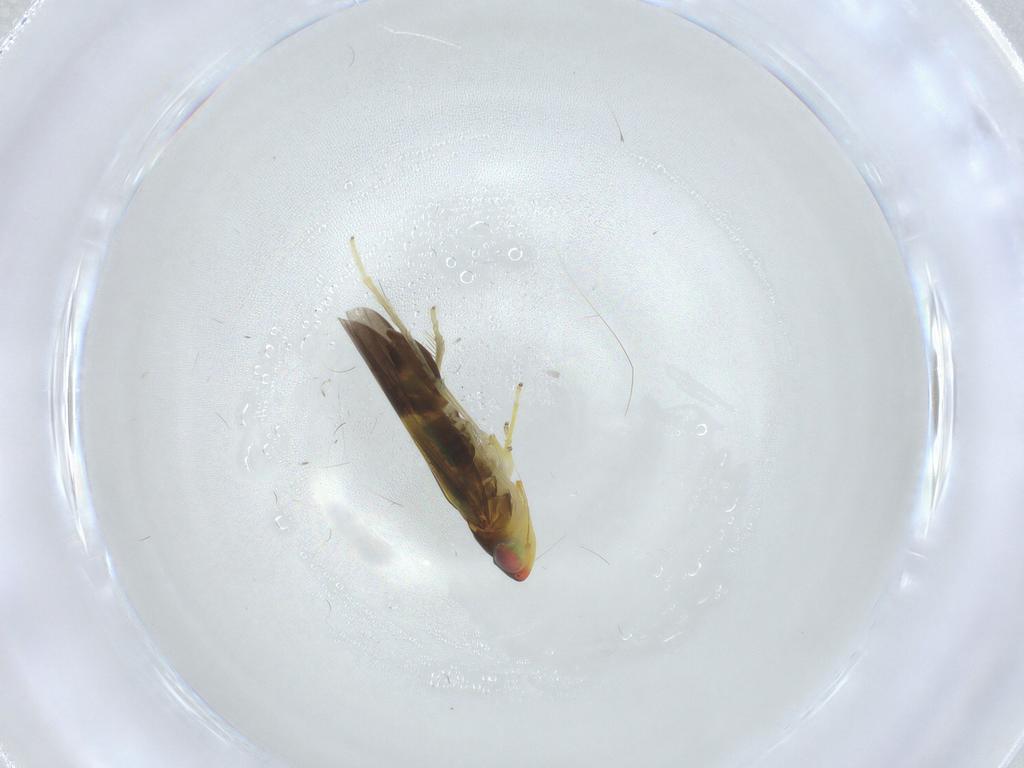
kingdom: Animalia
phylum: Arthropoda
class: Insecta
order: Hemiptera
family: Cicadellidae
